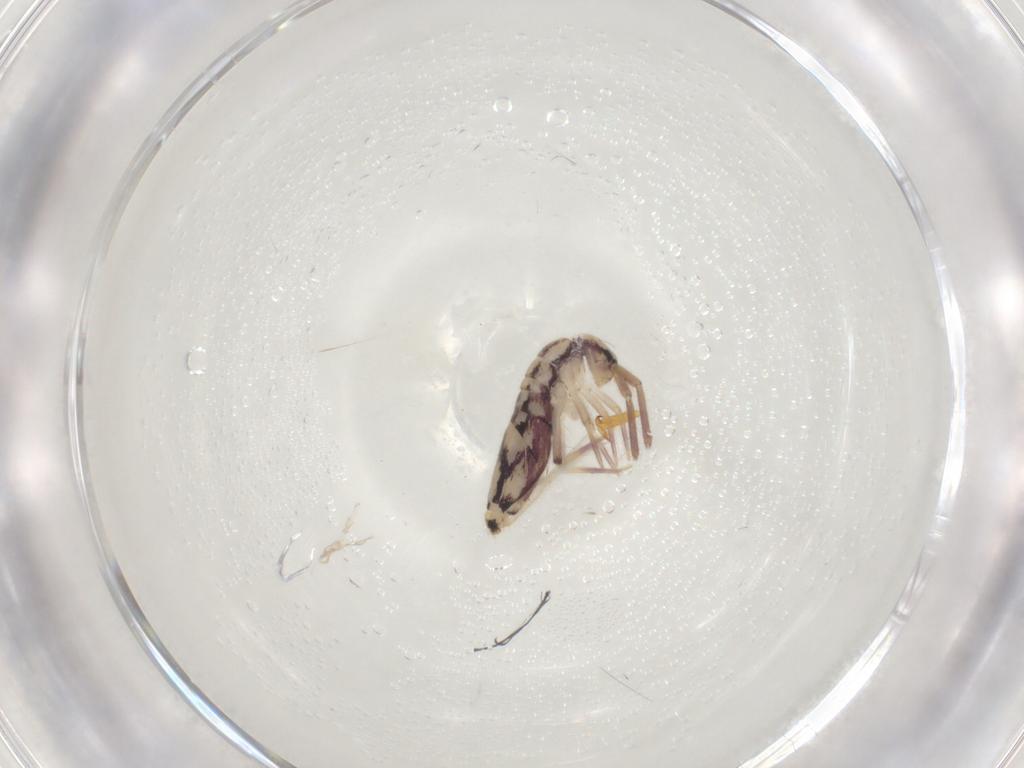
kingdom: Animalia
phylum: Arthropoda
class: Collembola
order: Entomobryomorpha
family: Entomobryidae
